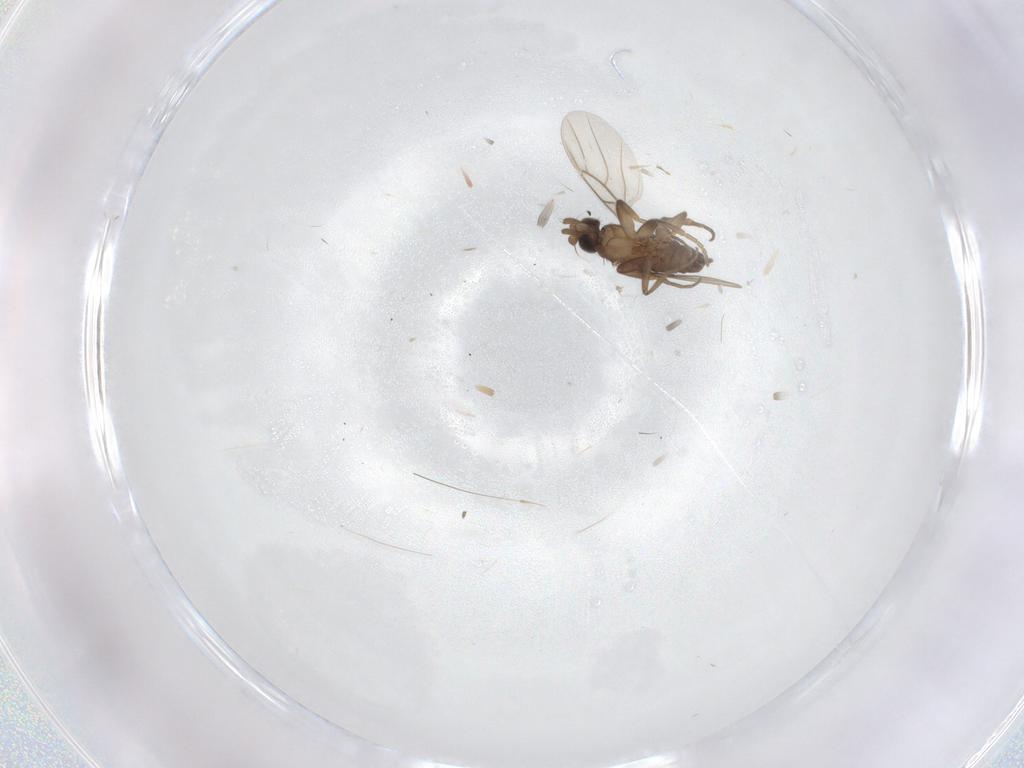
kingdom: Animalia
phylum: Arthropoda
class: Insecta
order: Diptera
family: Phoridae
